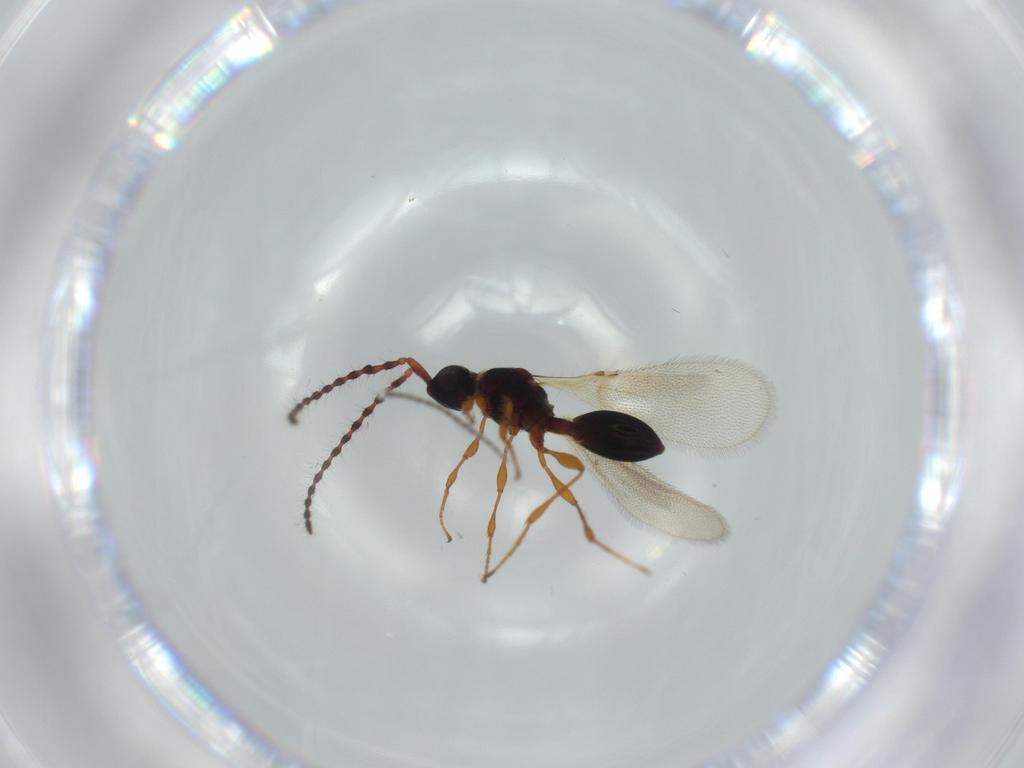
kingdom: Animalia
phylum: Arthropoda
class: Insecta
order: Hymenoptera
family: Diapriidae
